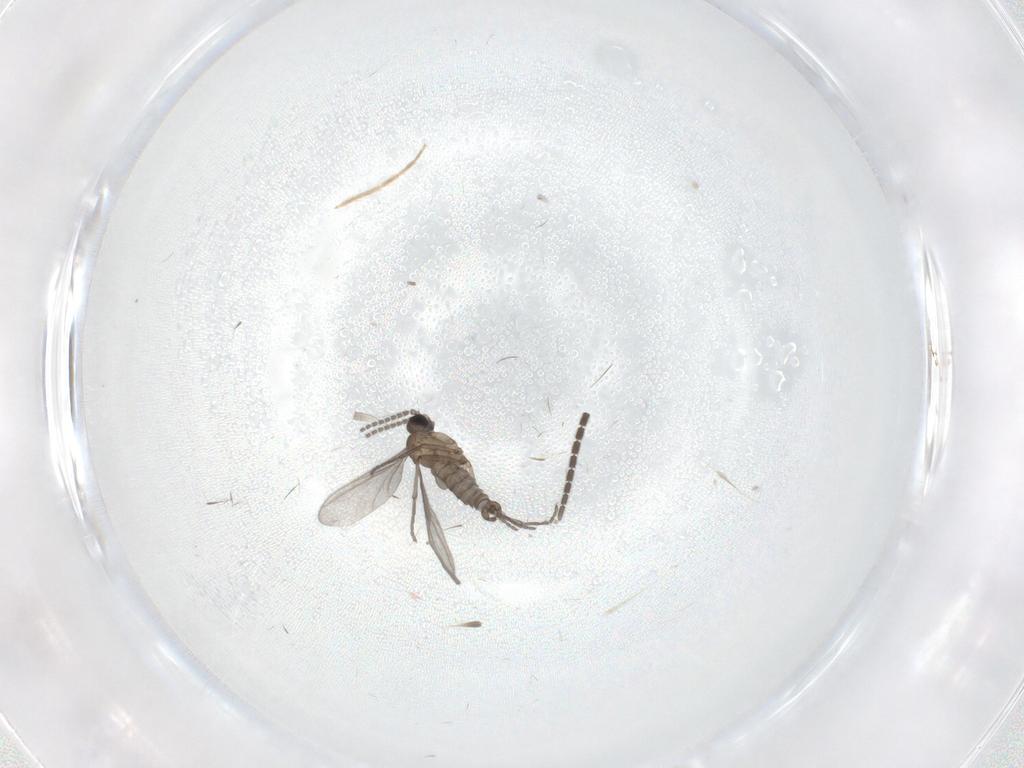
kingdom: Animalia
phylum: Arthropoda
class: Insecta
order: Diptera
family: Sciaridae
